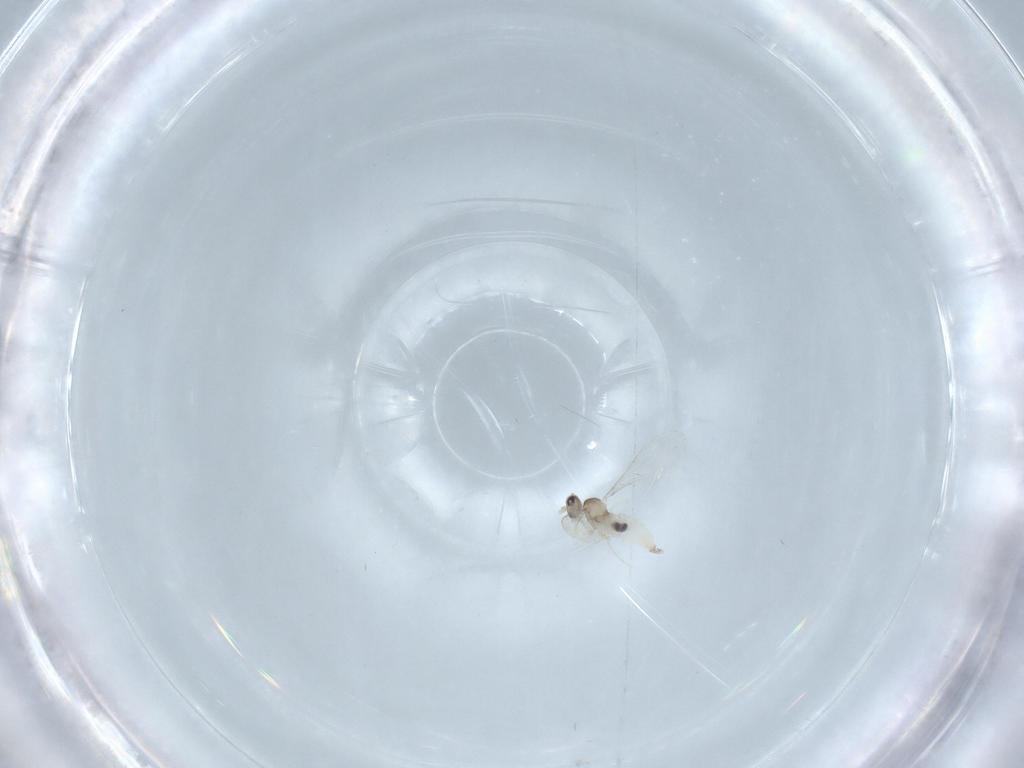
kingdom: Animalia
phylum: Arthropoda
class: Insecta
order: Diptera
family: Cecidomyiidae
